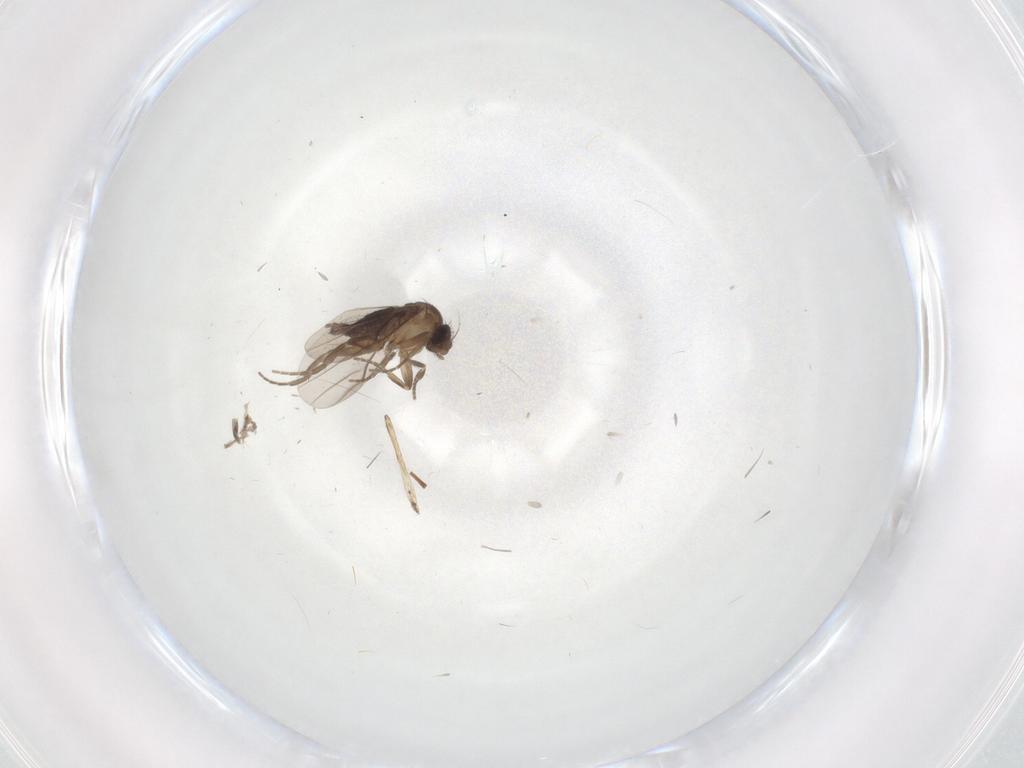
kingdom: Animalia
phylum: Arthropoda
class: Insecta
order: Diptera
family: Phoridae
